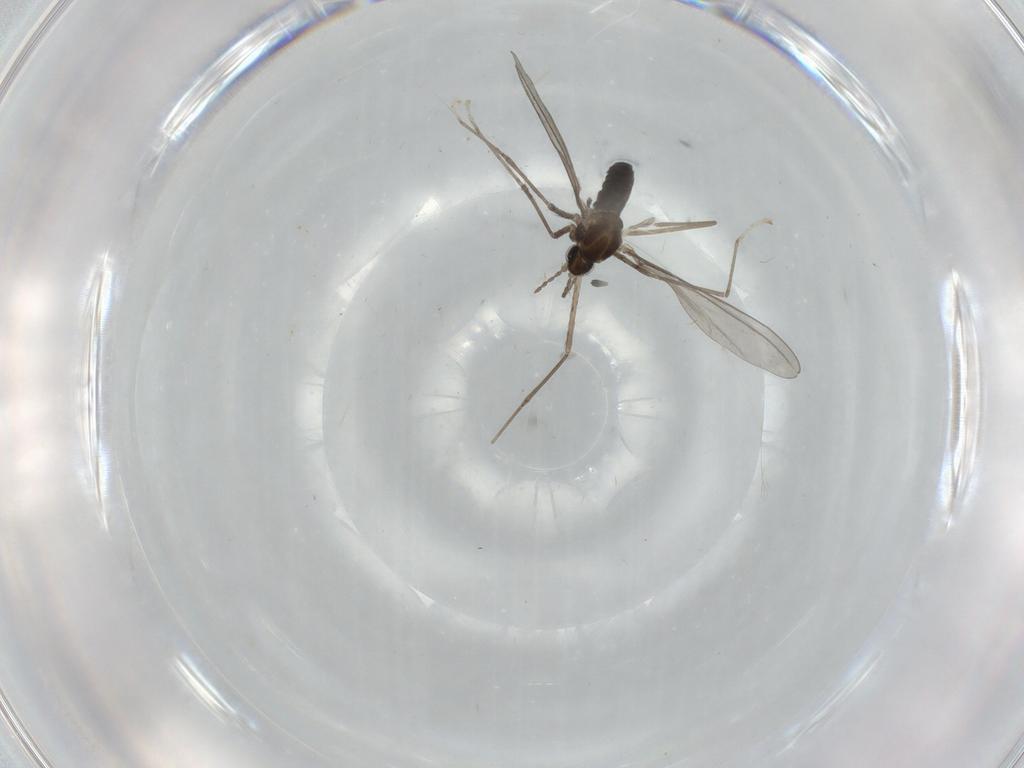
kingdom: Animalia
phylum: Arthropoda
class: Insecta
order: Diptera
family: Cecidomyiidae
